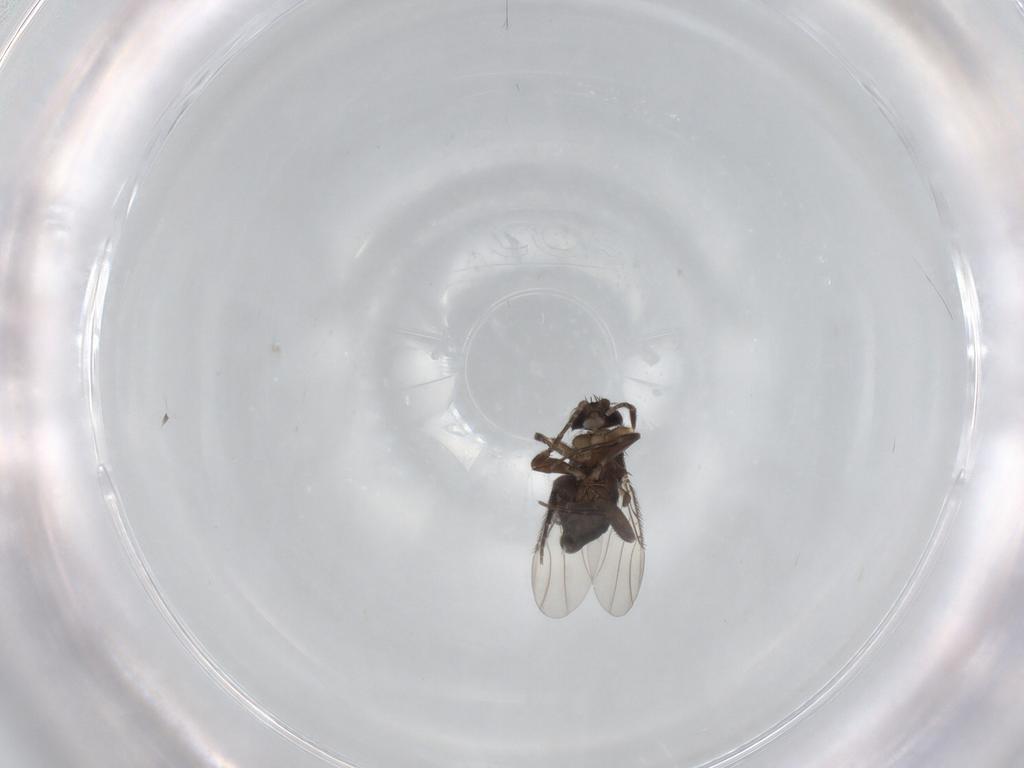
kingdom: Animalia
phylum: Arthropoda
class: Insecta
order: Diptera
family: Phoridae
